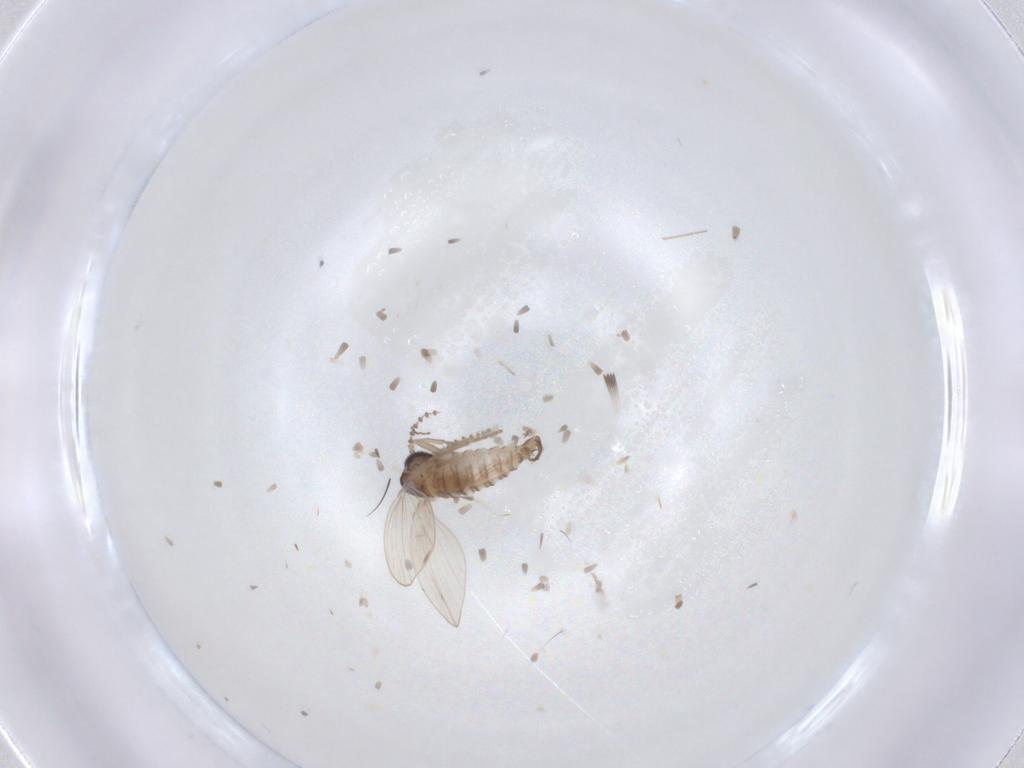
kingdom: Animalia
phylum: Arthropoda
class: Insecta
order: Diptera
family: Psychodidae
